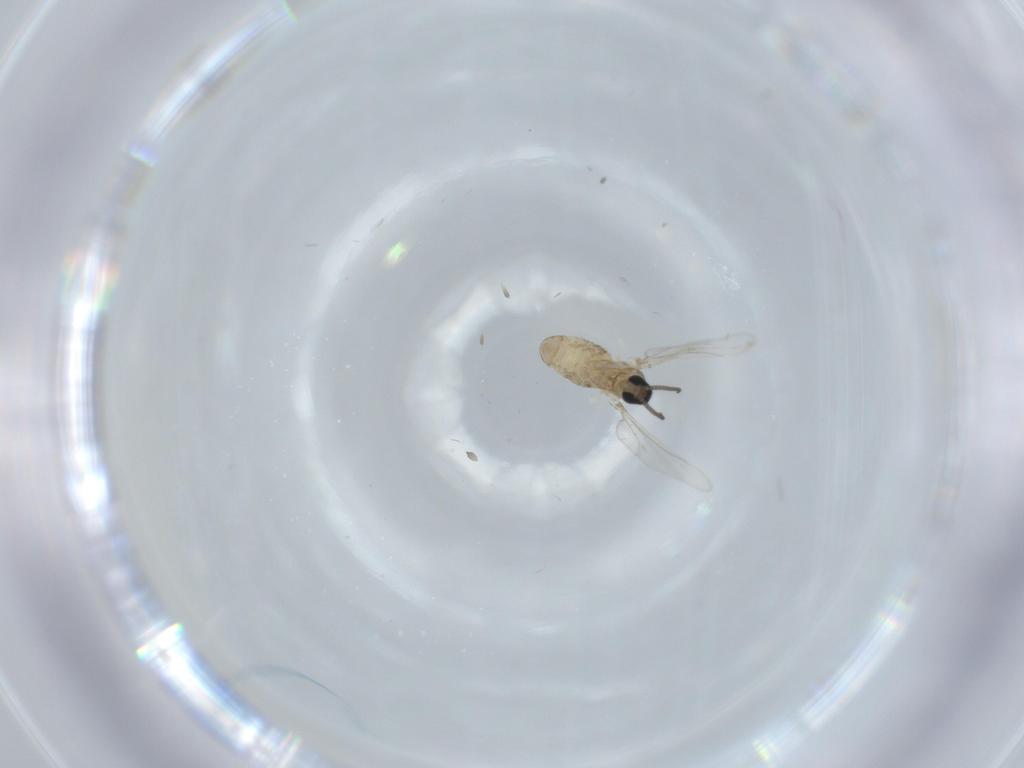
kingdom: Animalia
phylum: Arthropoda
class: Insecta
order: Diptera
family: Cecidomyiidae
